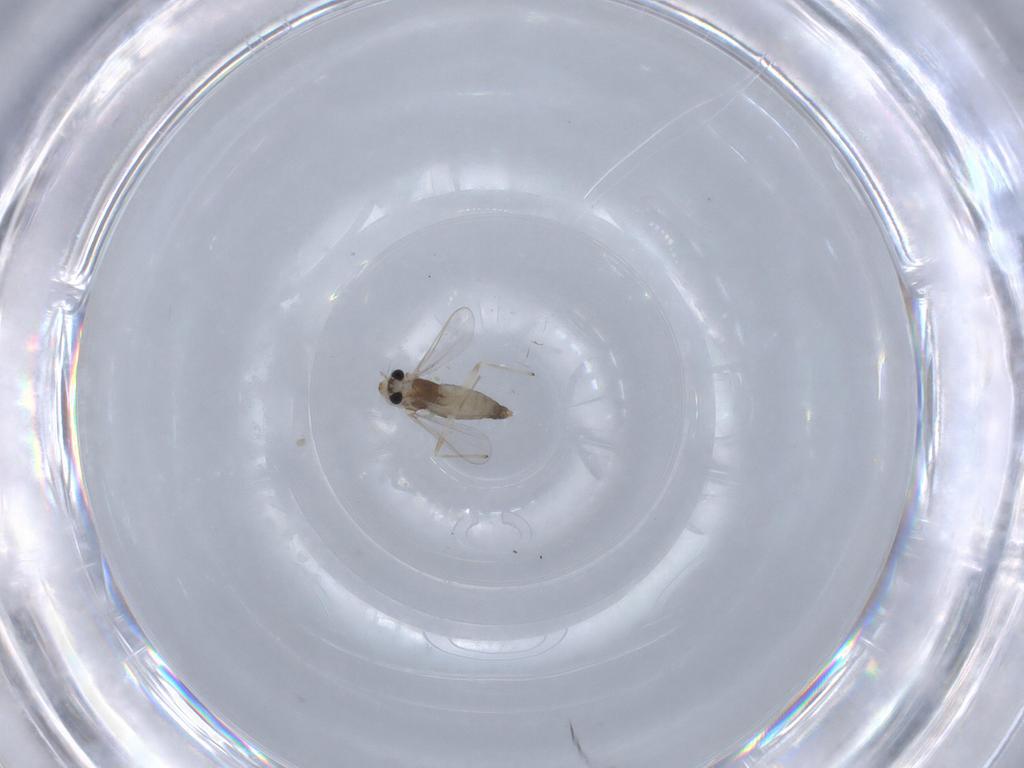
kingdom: Animalia
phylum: Arthropoda
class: Insecta
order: Diptera
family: Chironomidae
